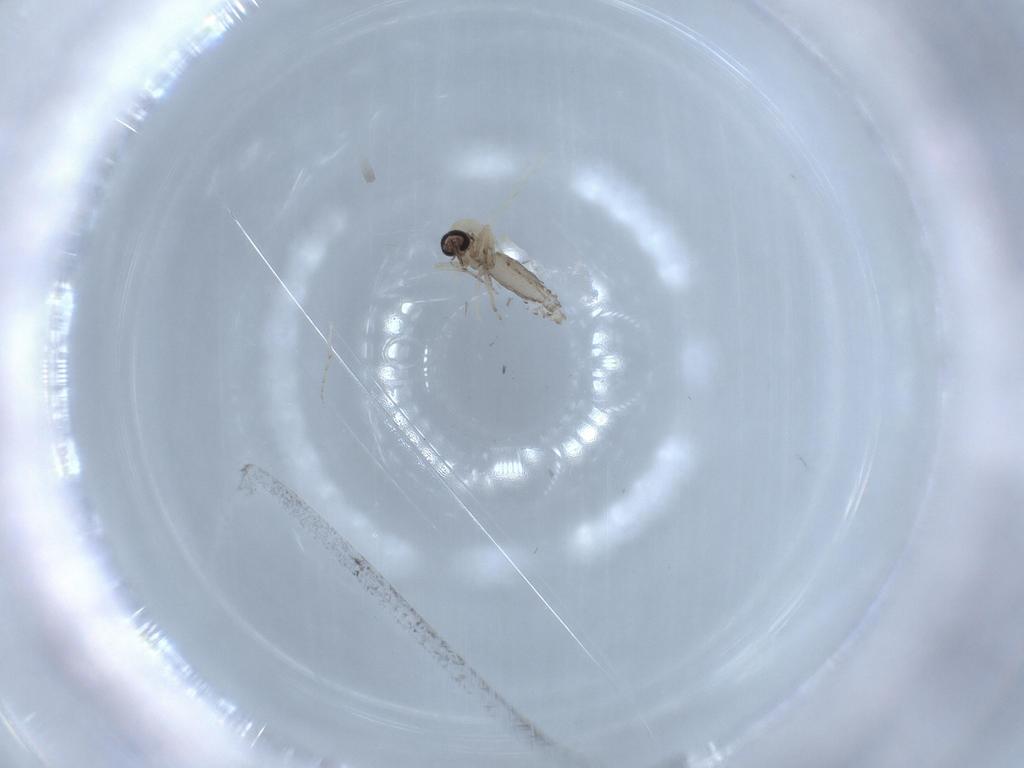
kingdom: Animalia
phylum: Arthropoda
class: Insecta
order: Diptera
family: Ceratopogonidae
